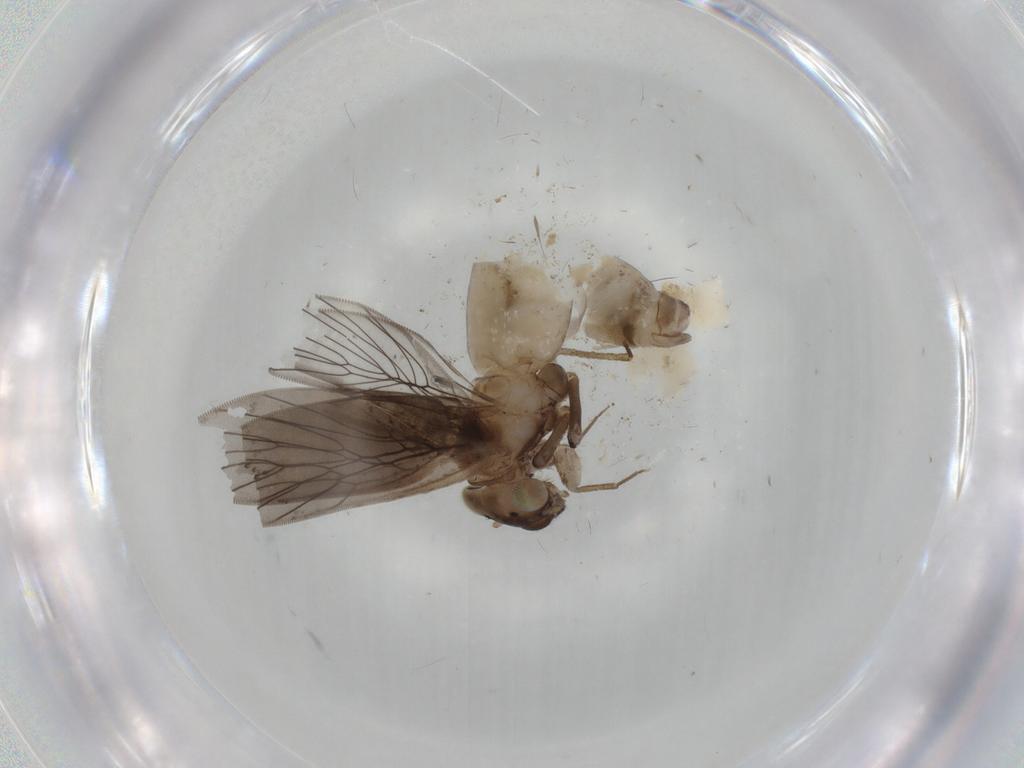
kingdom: Animalia
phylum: Arthropoda
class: Insecta
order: Psocodea
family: Lepidopsocidae
